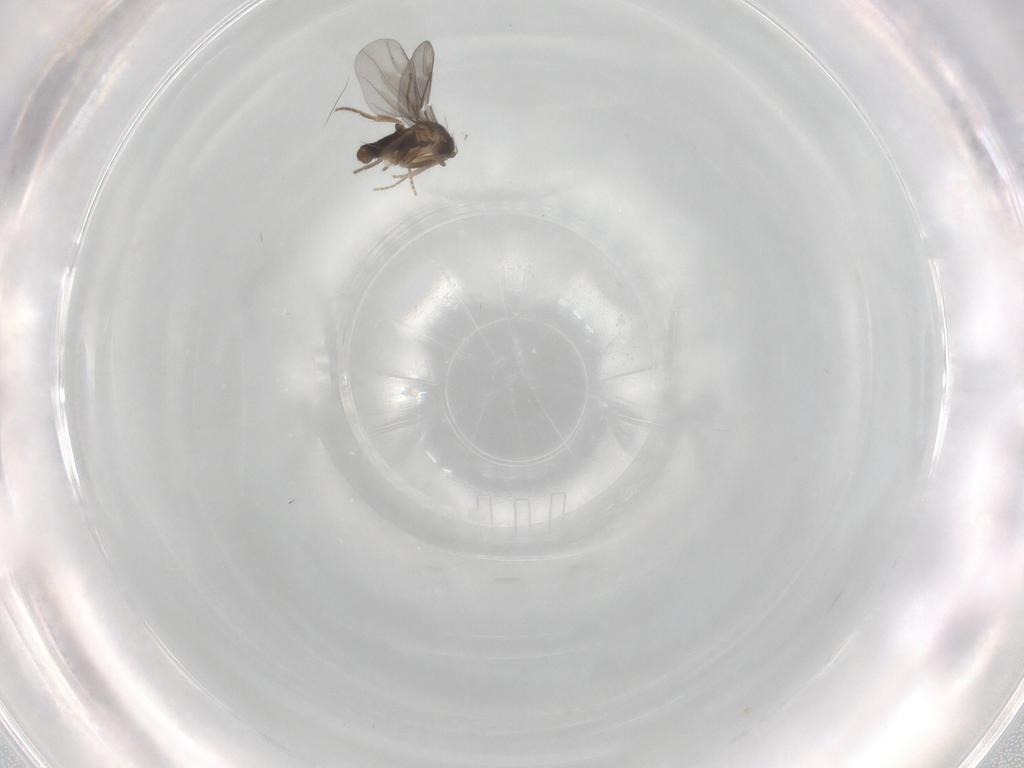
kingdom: Animalia
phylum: Arthropoda
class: Insecta
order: Diptera
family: Phoridae
